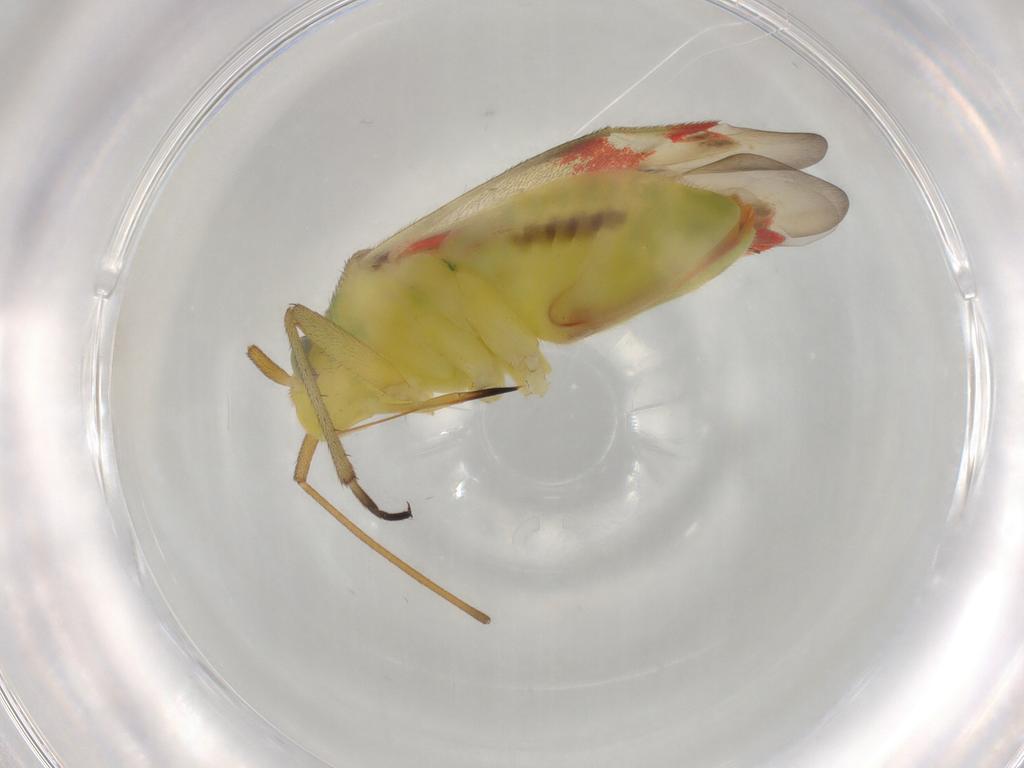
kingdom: Animalia
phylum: Arthropoda
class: Insecta
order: Hemiptera
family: Miridae
